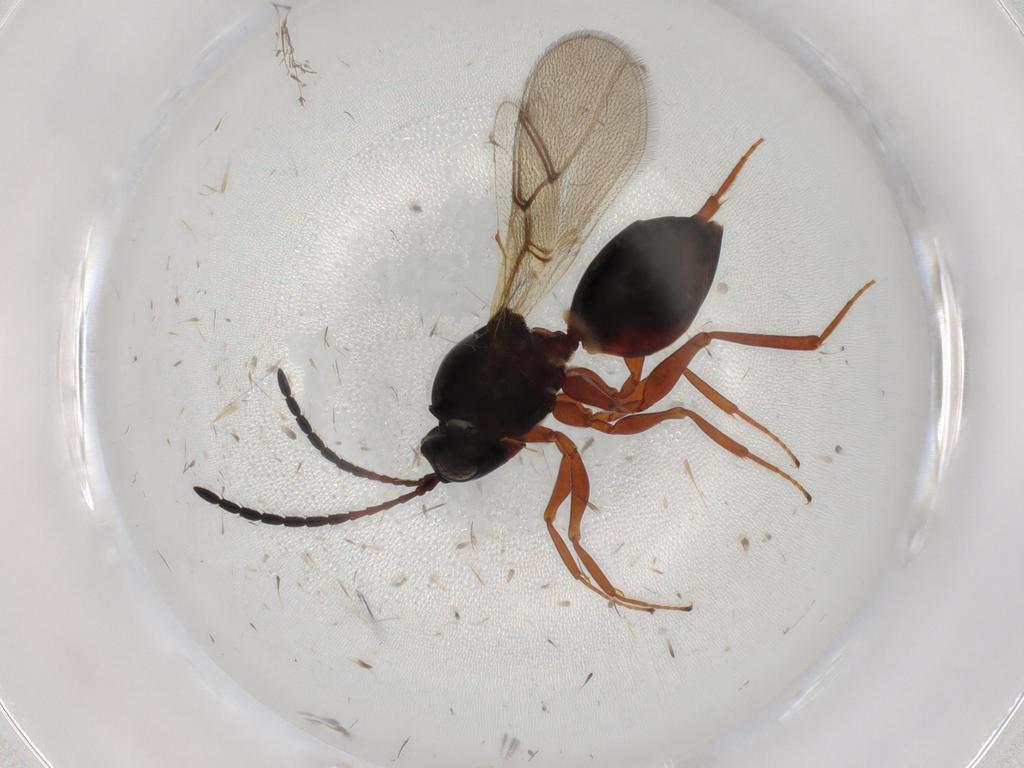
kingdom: Animalia
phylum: Arthropoda
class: Insecta
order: Hymenoptera
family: Figitidae
